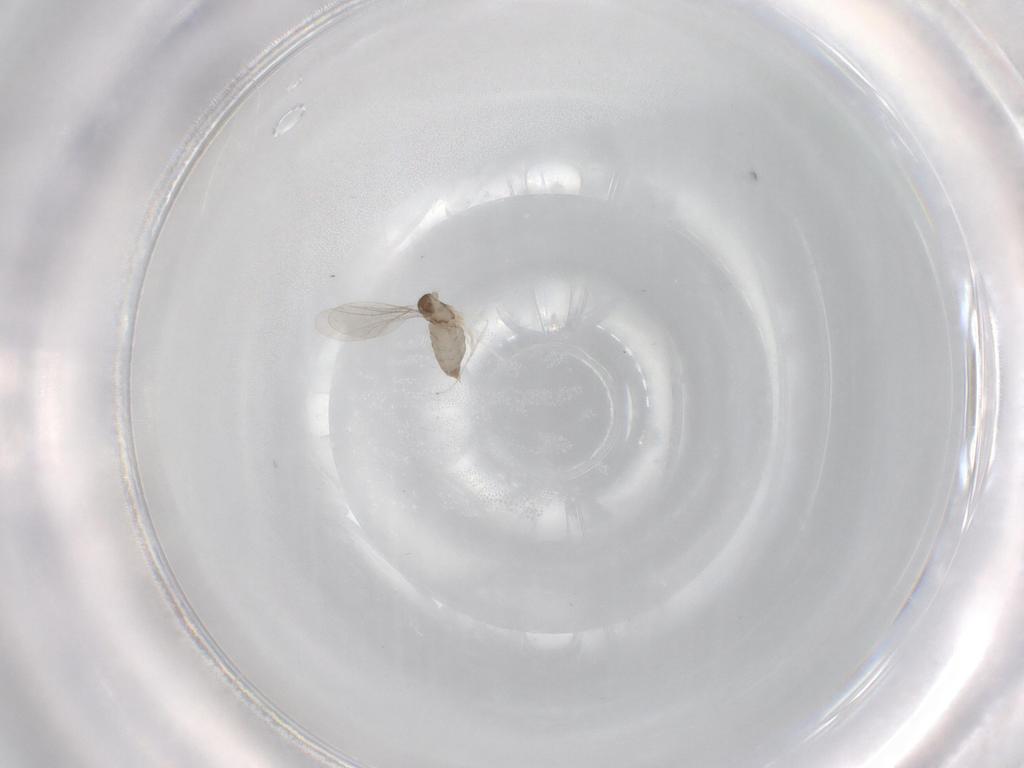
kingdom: Animalia
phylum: Arthropoda
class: Insecta
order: Diptera
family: Cecidomyiidae
